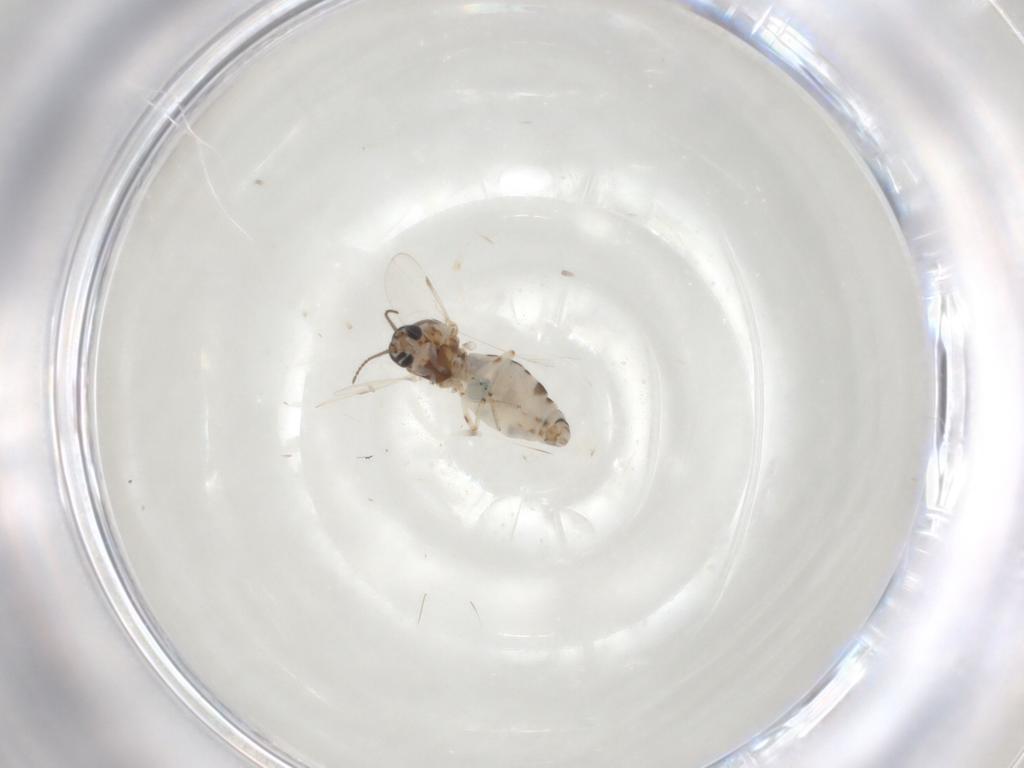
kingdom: Animalia
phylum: Arthropoda
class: Insecta
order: Diptera
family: Ceratopogonidae
